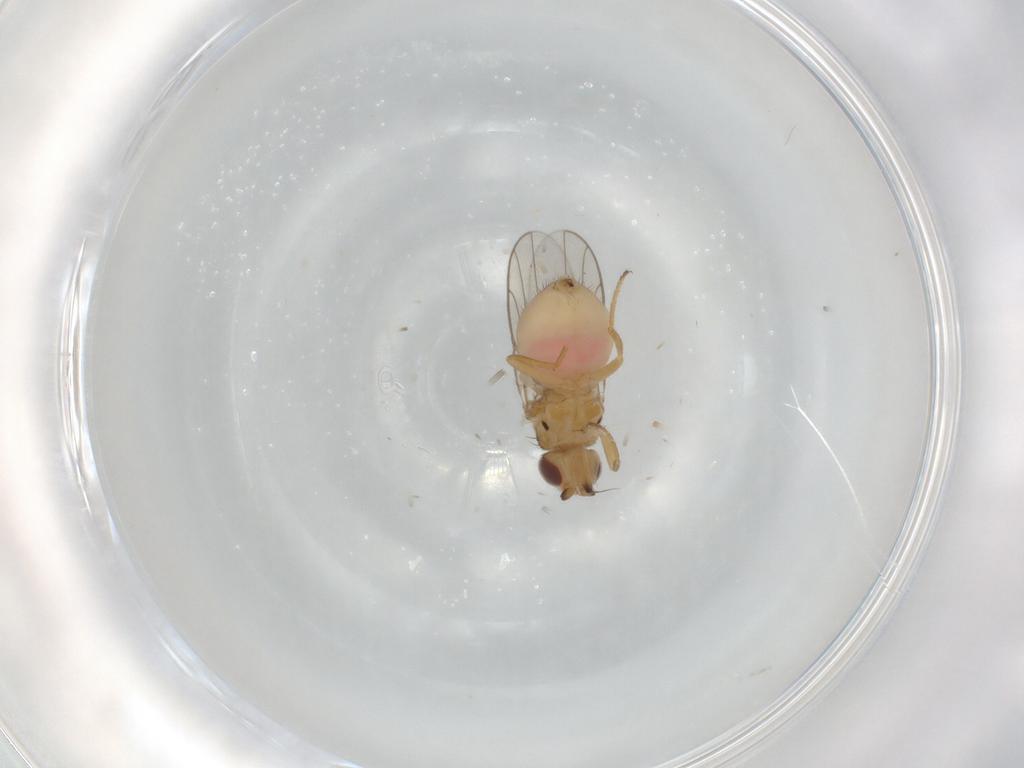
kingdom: Animalia
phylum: Arthropoda
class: Insecta
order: Diptera
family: Chloropidae
